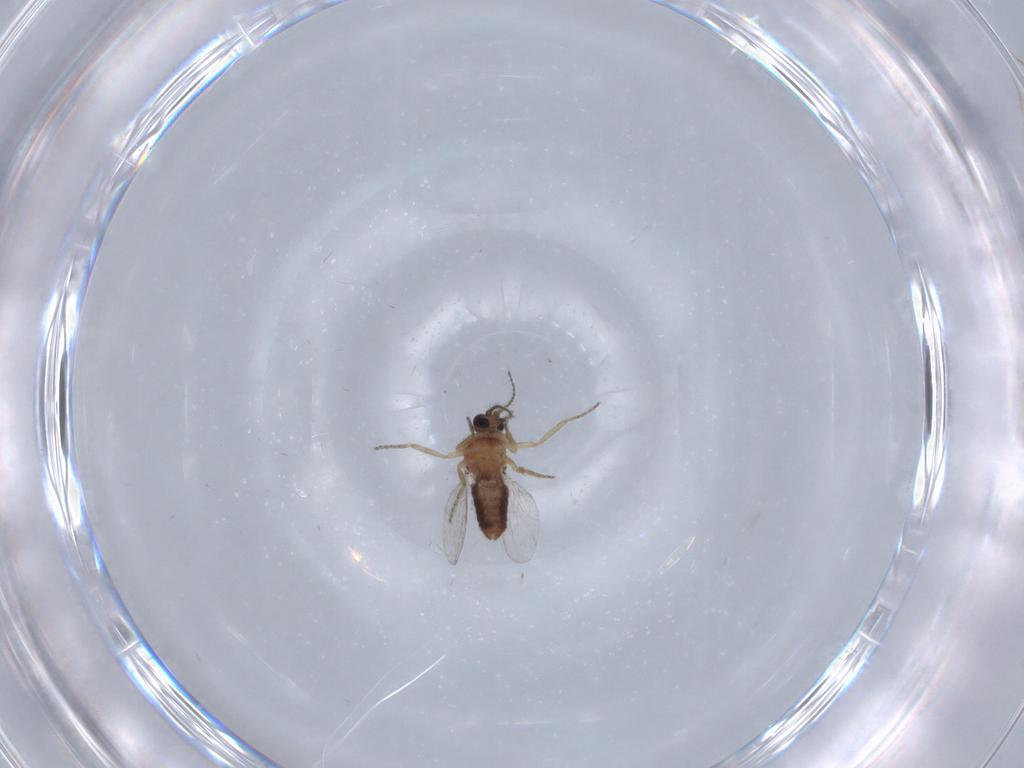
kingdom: Animalia
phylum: Arthropoda
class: Insecta
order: Diptera
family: Ceratopogonidae
